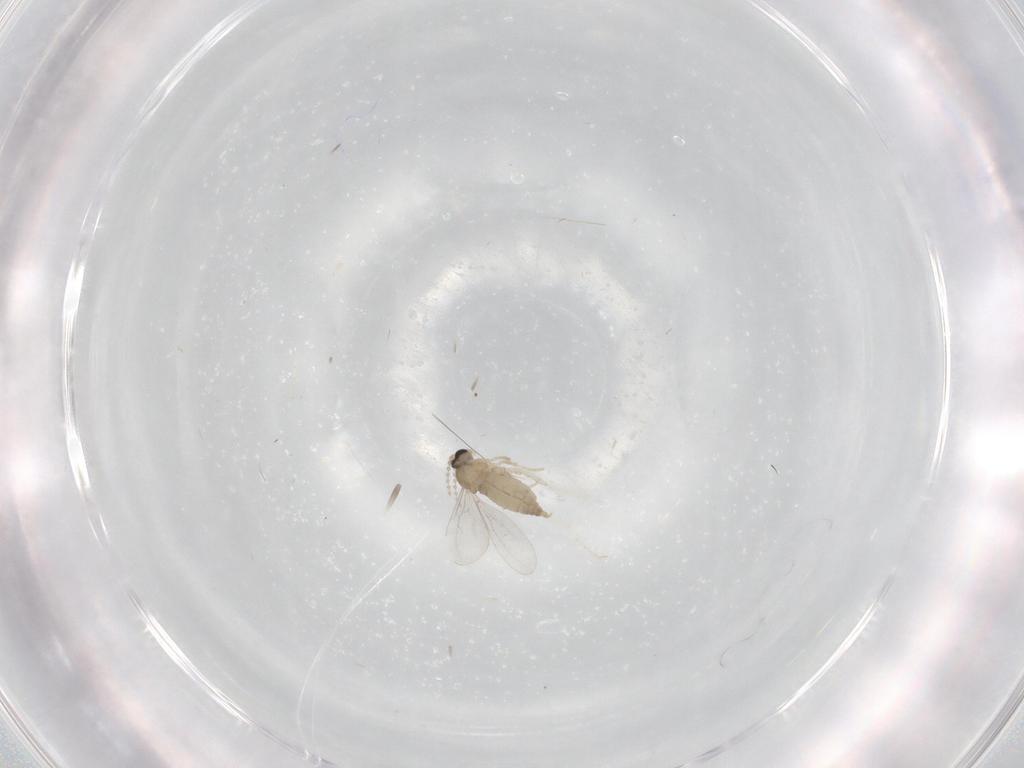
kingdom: Animalia
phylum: Arthropoda
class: Insecta
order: Diptera
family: Cecidomyiidae
